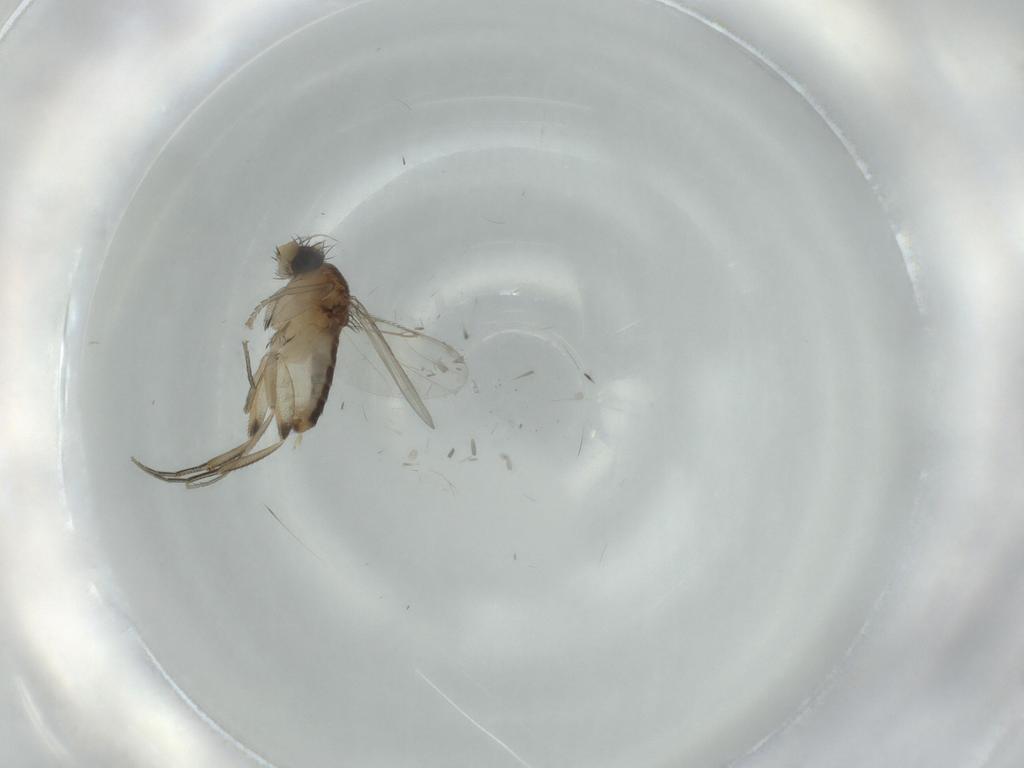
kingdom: Animalia
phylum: Arthropoda
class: Insecta
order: Diptera
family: Phoridae
